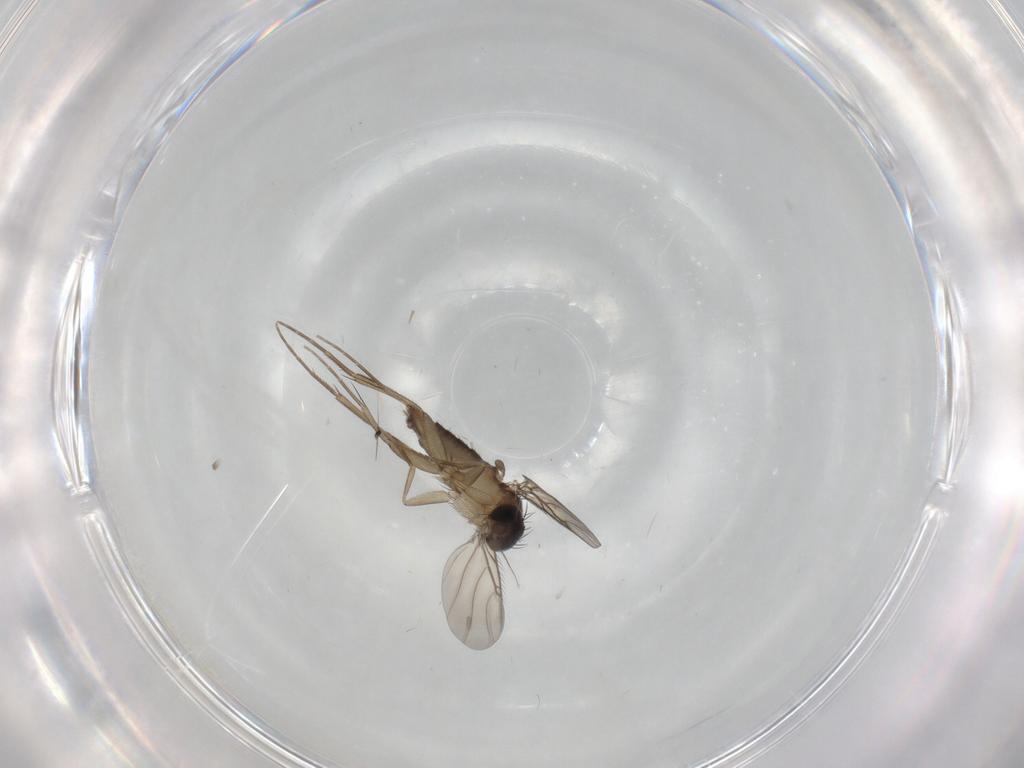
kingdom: Animalia
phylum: Arthropoda
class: Insecta
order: Diptera
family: Phoridae
